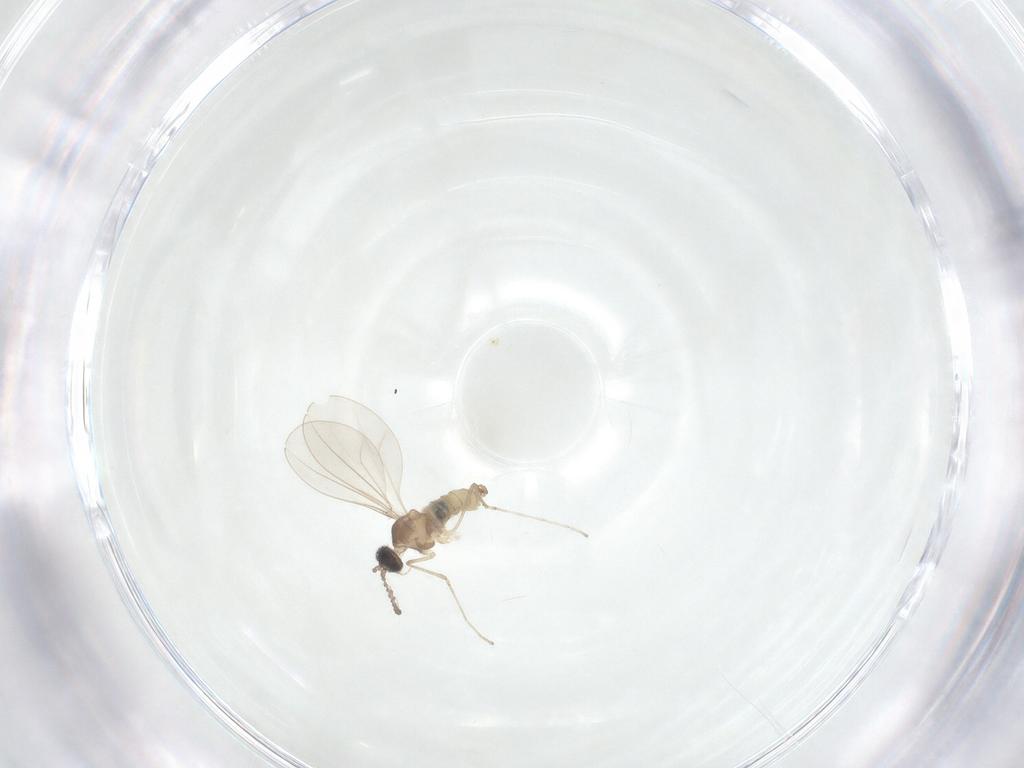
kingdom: Animalia
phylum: Arthropoda
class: Insecta
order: Diptera
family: Cecidomyiidae
